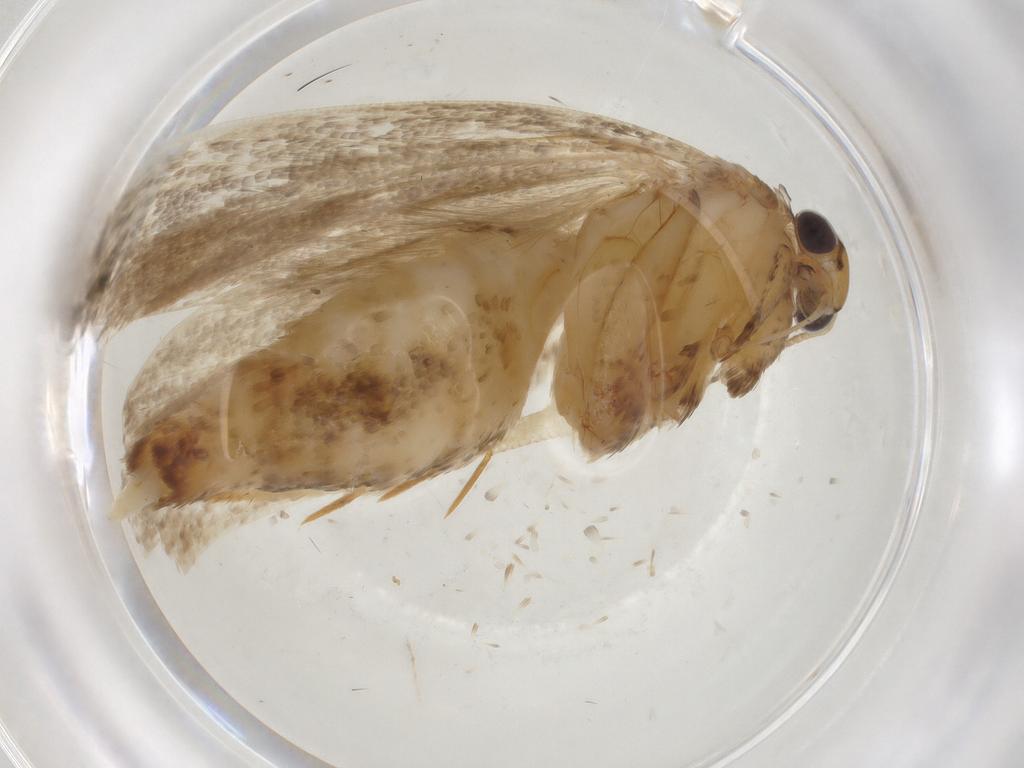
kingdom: Animalia
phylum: Arthropoda
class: Insecta
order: Lepidoptera
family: Gelechiidae
